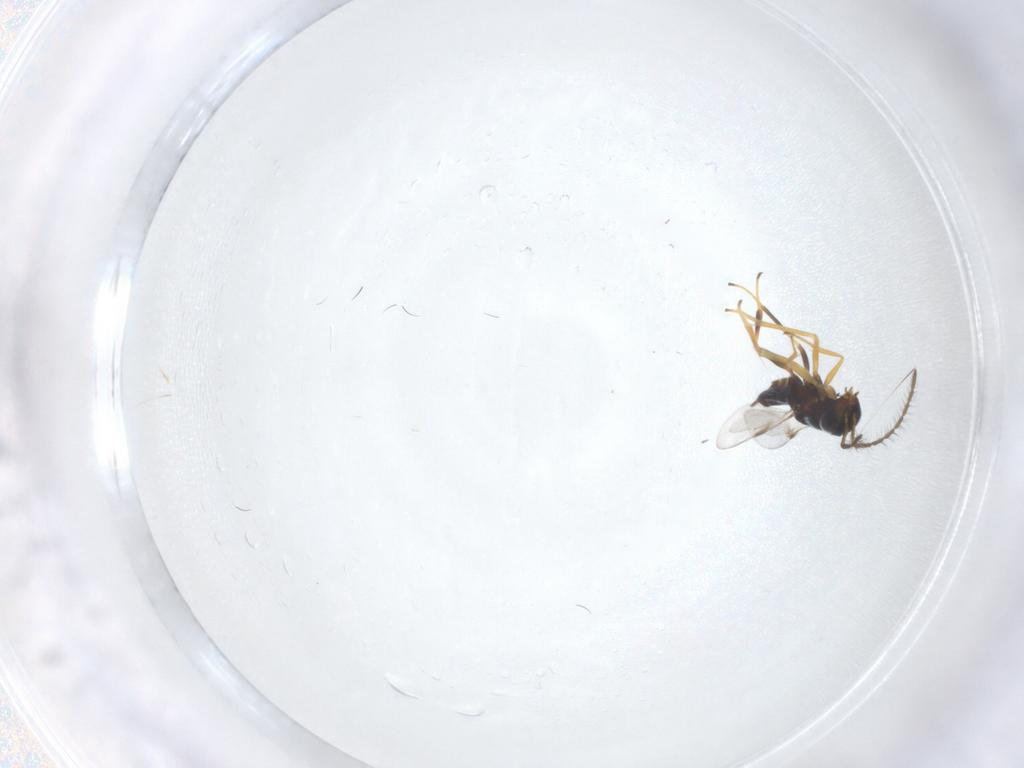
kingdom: Animalia
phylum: Arthropoda
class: Insecta
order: Hymenoptera
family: Encyrtidae
